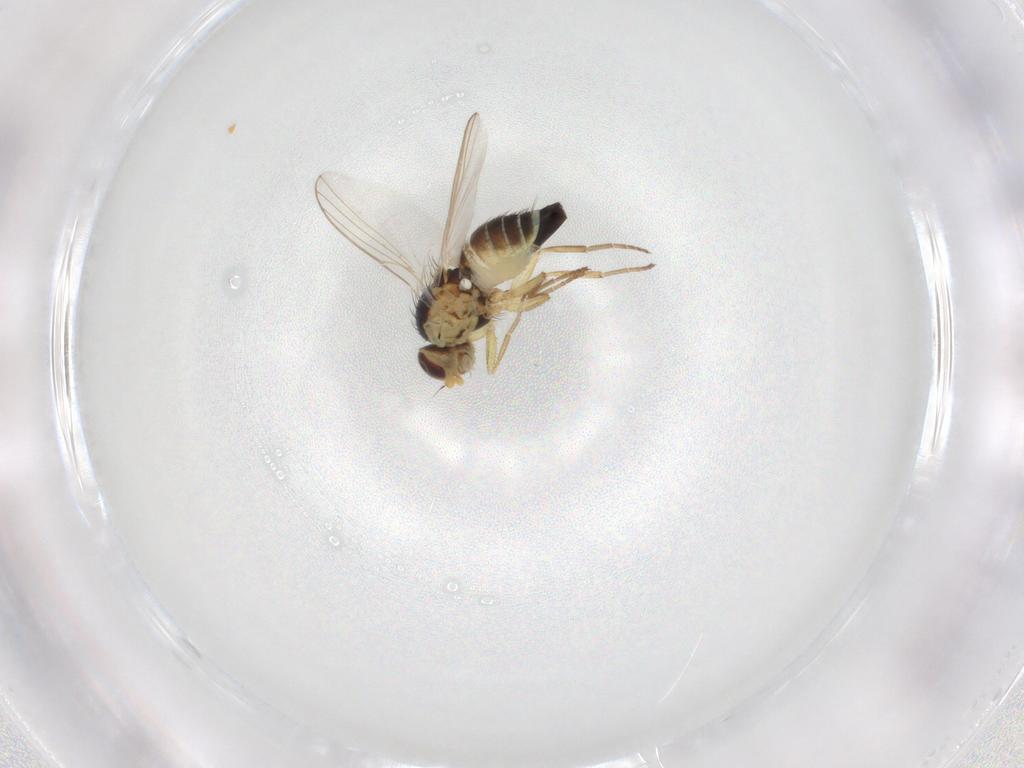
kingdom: Animalia
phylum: Arthropoda
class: Insecta
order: Diptera
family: Agromyzidae
